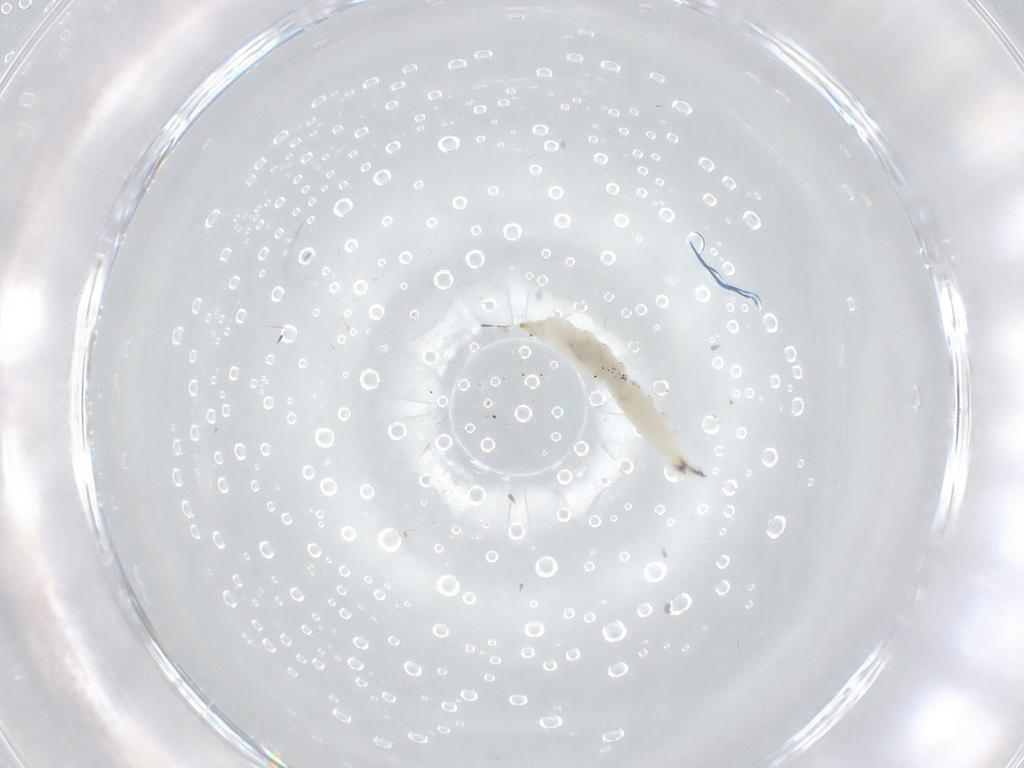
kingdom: Animalia
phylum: Arthropoda
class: Insecta
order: Diptera
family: Drosophilidae
